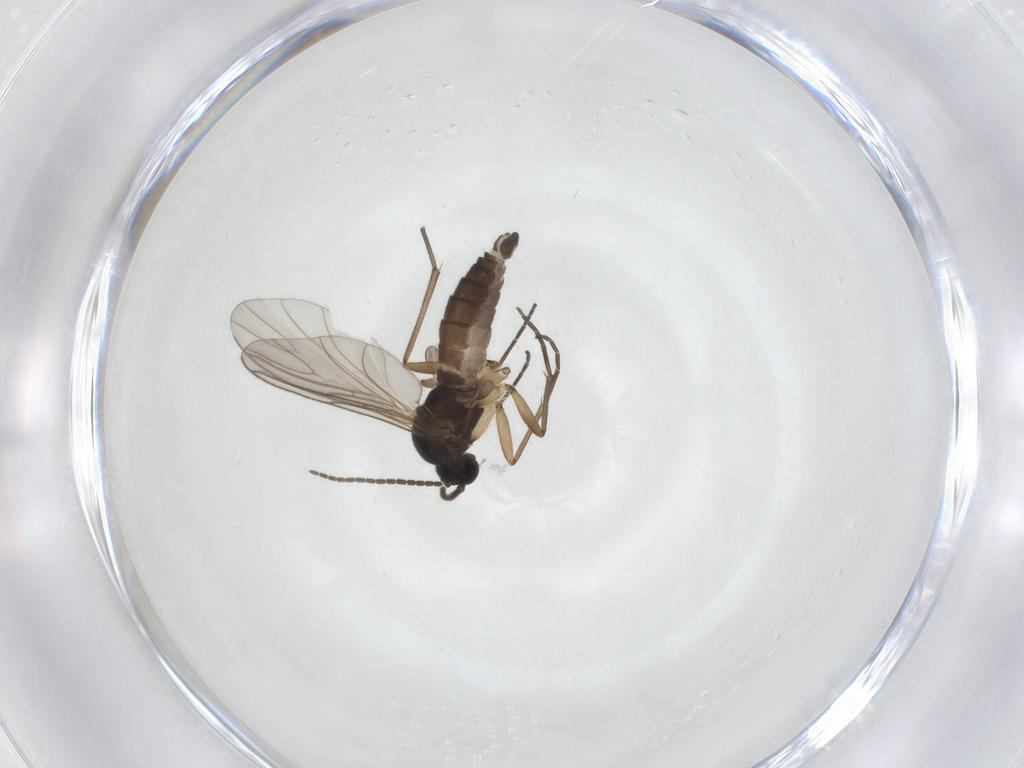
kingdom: Animalia
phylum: Arthropoda
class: Insecta
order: Diptera
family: Sciaridae
